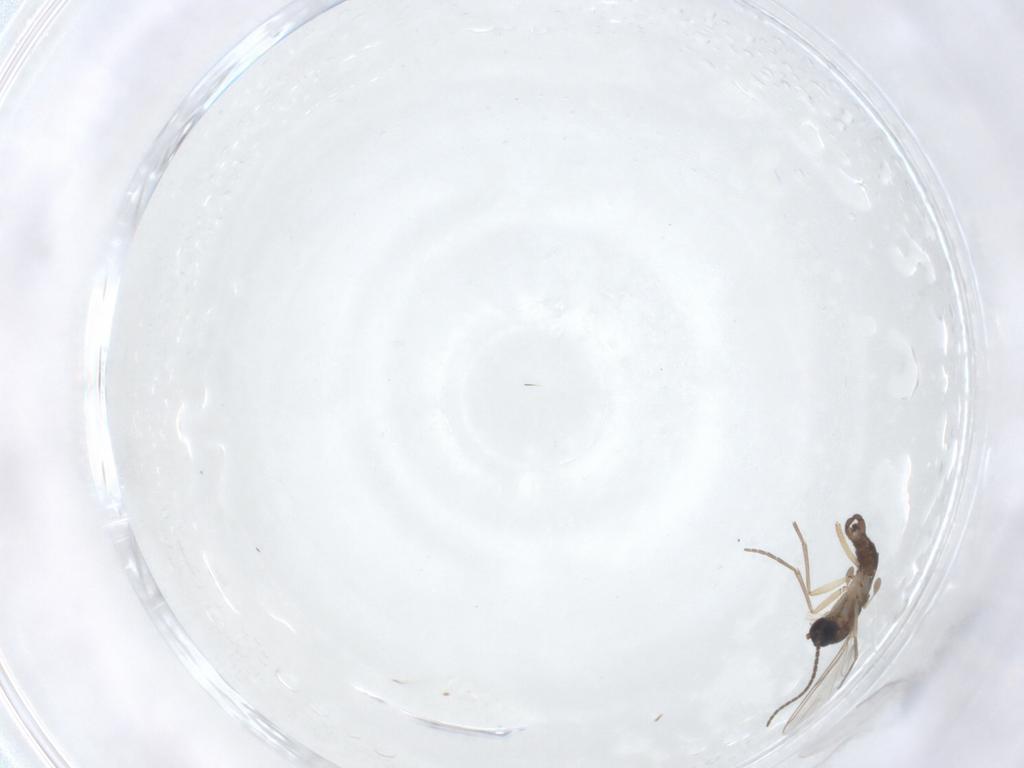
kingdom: Animalia
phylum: Arthropoda
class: Insecta
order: Diptera
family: Sciaridae
